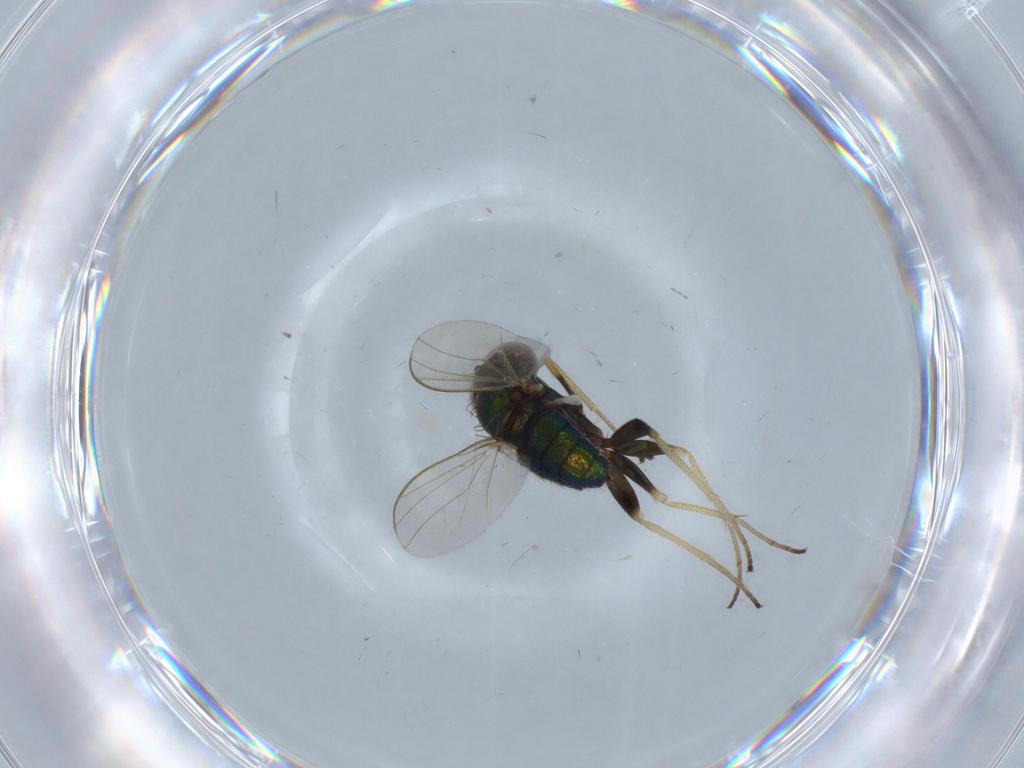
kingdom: Animalia
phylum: Arthropoda
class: Insecta
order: Diptera
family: Dolichopodidae
